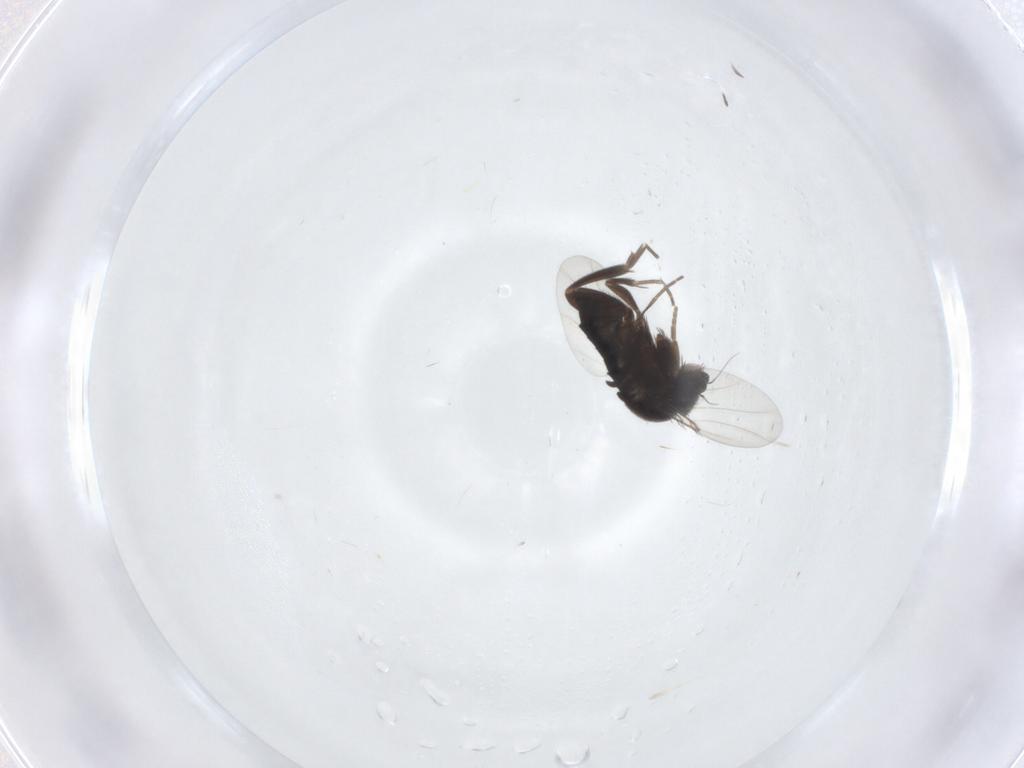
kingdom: Animalia
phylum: Arthropoda
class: Insecta
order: Diptera
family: Phoridae
